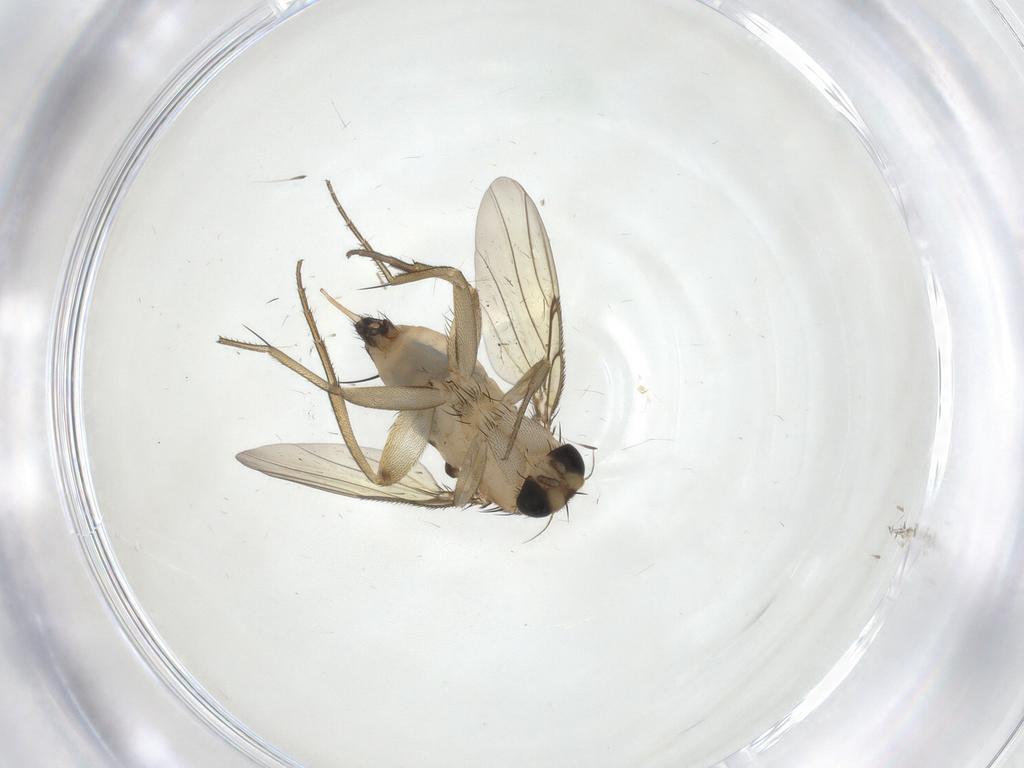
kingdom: Animalia
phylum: Arthropoda
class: Insecta
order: Diptera
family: Phoridae
